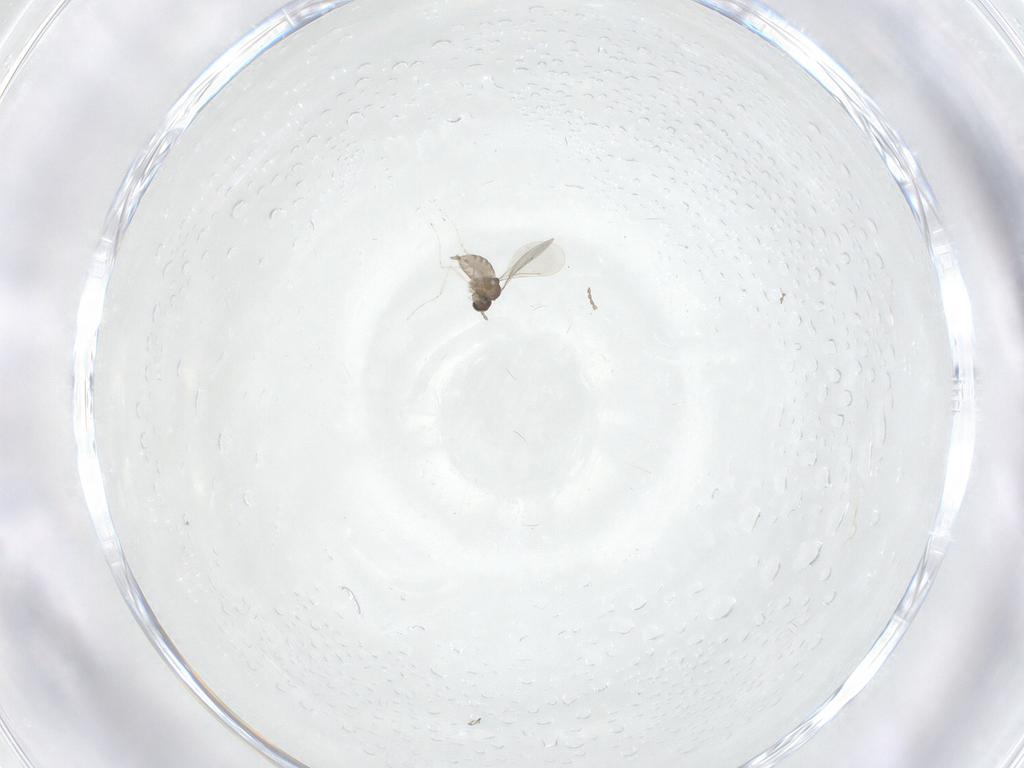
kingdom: Animalia
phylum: Arthropoda
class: Insecta
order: Diptera
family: Cecidomyiidae
